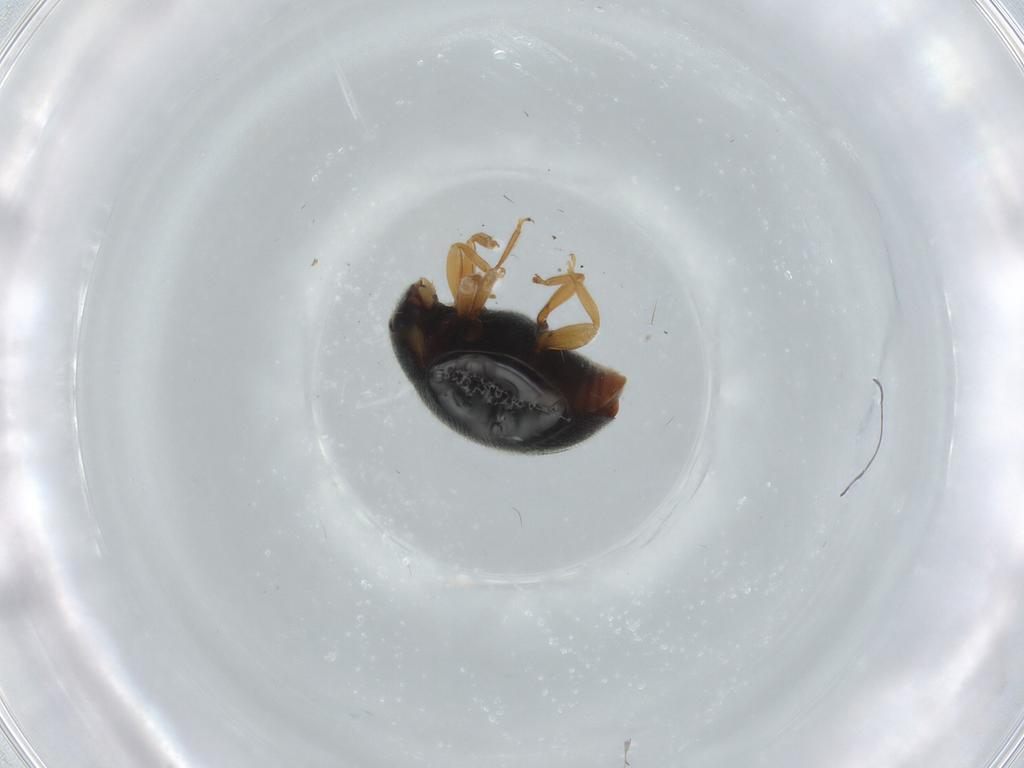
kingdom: Animalia
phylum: Arthropoda
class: Insecta
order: Coleoptera
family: Coccinellidae
